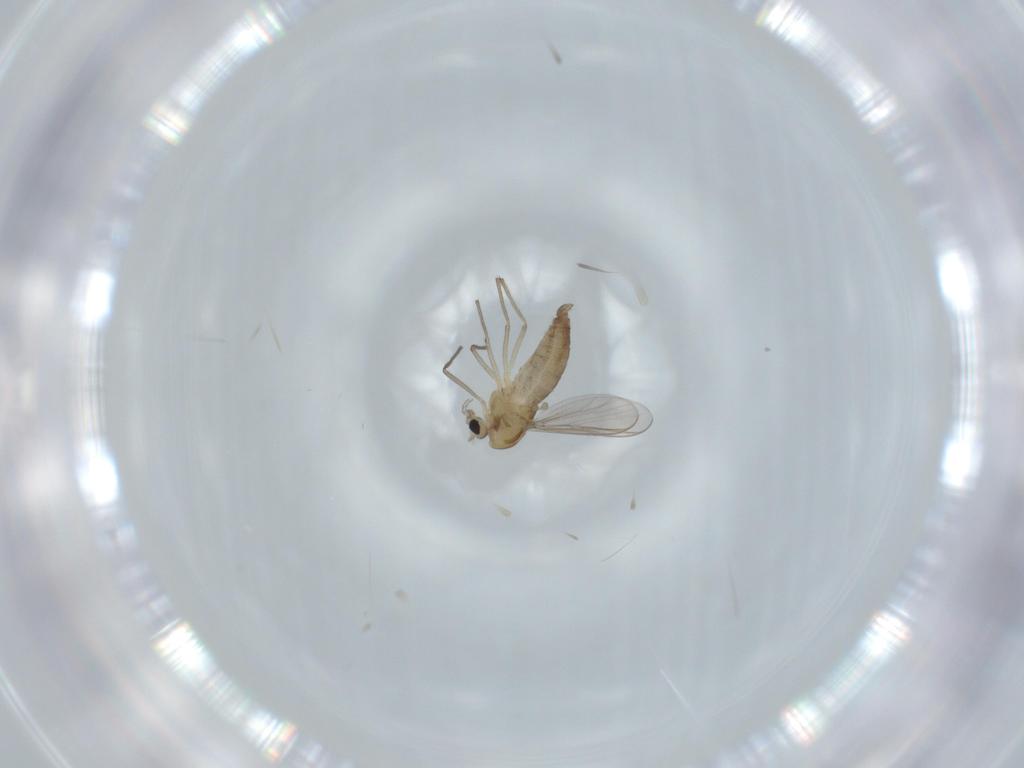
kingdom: Animalia
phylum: Arthropoda
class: Insecta
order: Diptera
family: Chironomidae
